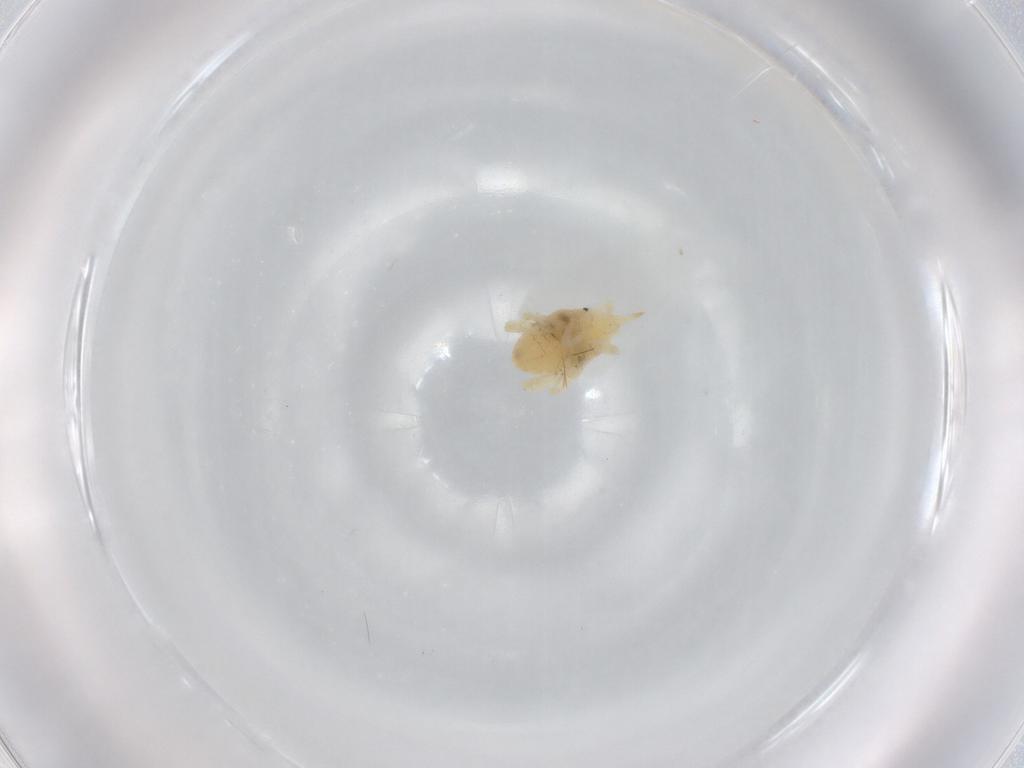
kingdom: Animalia
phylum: Arthropoda
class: Arachnida
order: Trombidiformes
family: Bdellidae
